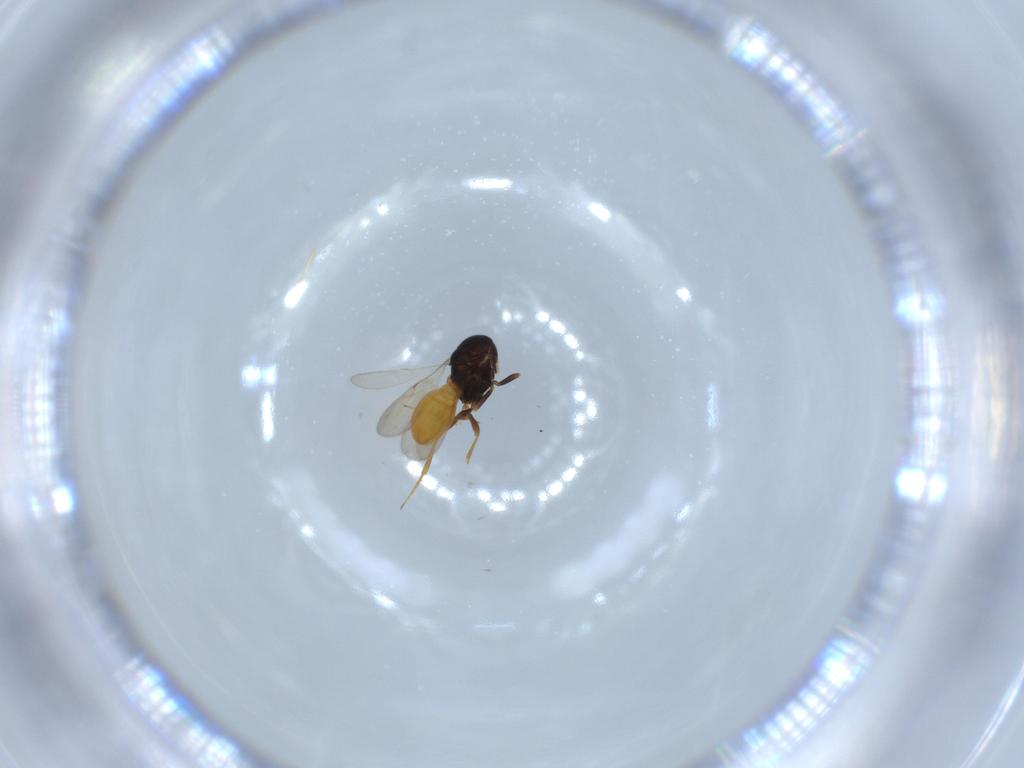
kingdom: Animalia
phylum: Arthropoda
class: Insecta
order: Hymenoptera
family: Scelionidae
